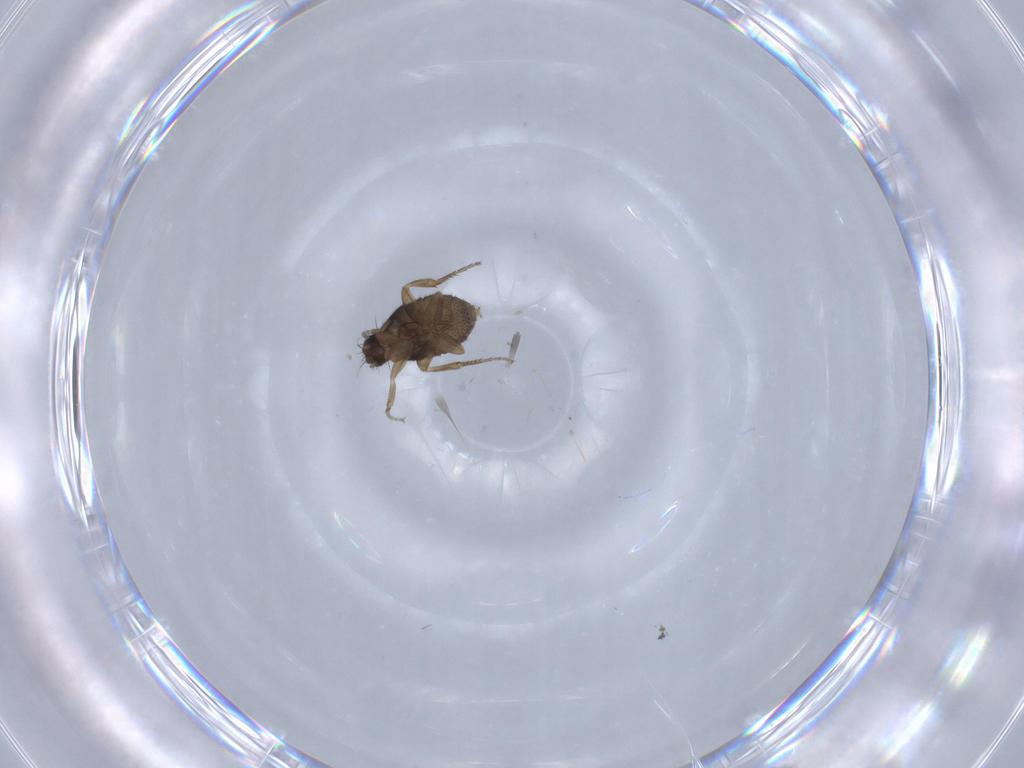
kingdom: Animalia
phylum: Arthropoda
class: Insecta
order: Diptera
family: Phoridae
